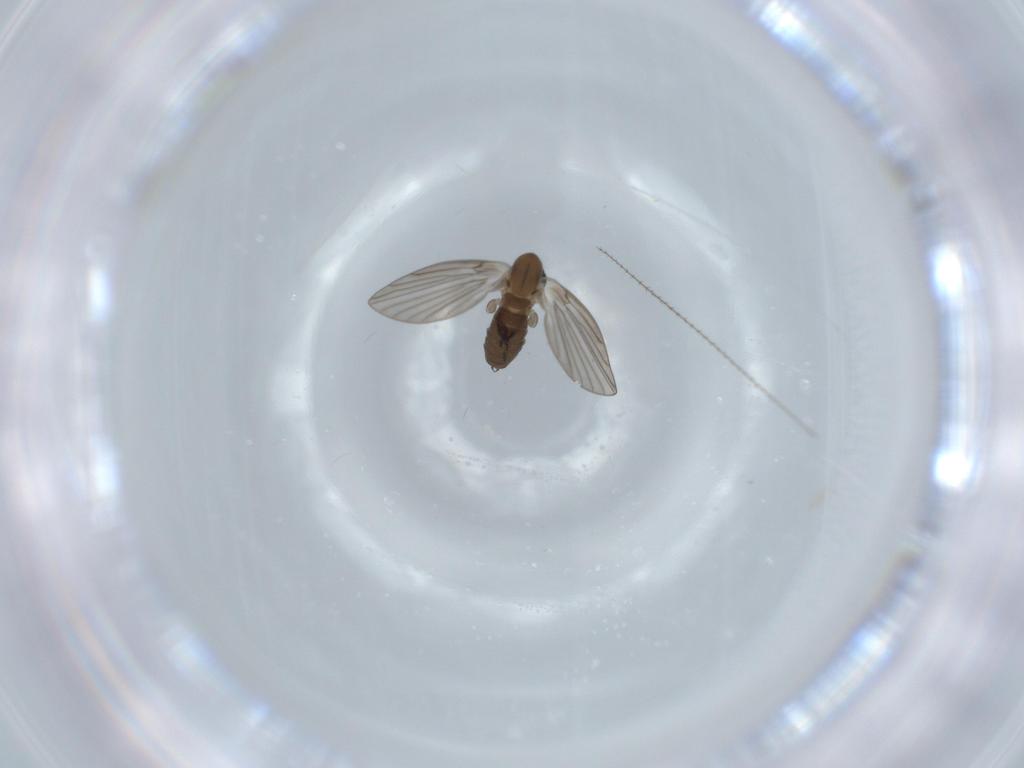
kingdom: Animalia
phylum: Arthropoda
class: Insecta
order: Diptera
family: Psychodidae
